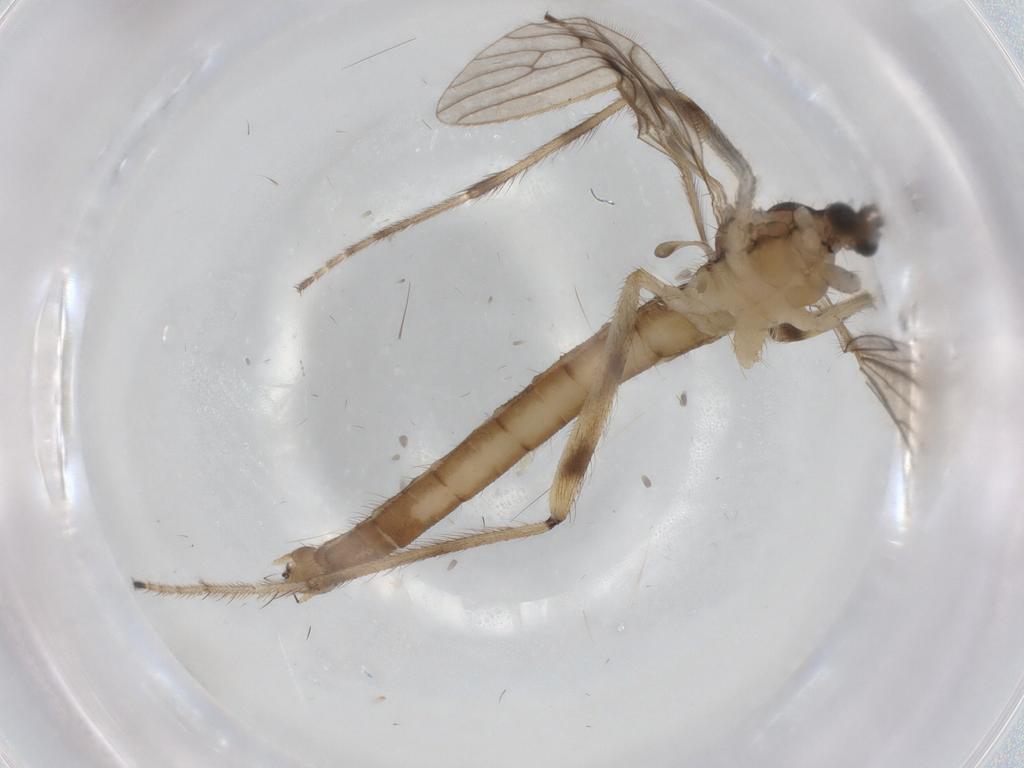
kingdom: Animalia
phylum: Arthropoda
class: Insecta
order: Diptera
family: Limoniidae
